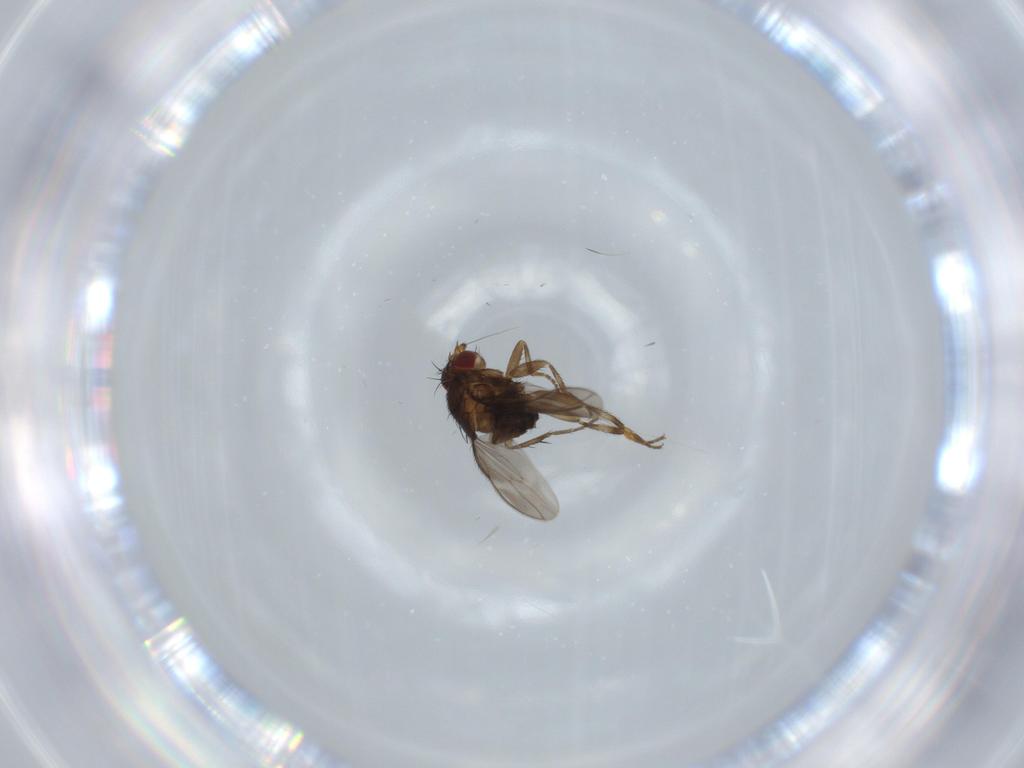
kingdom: Animalia
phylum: Arthropoda
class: Insecta
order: Diptera
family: Sphaeroceridae
